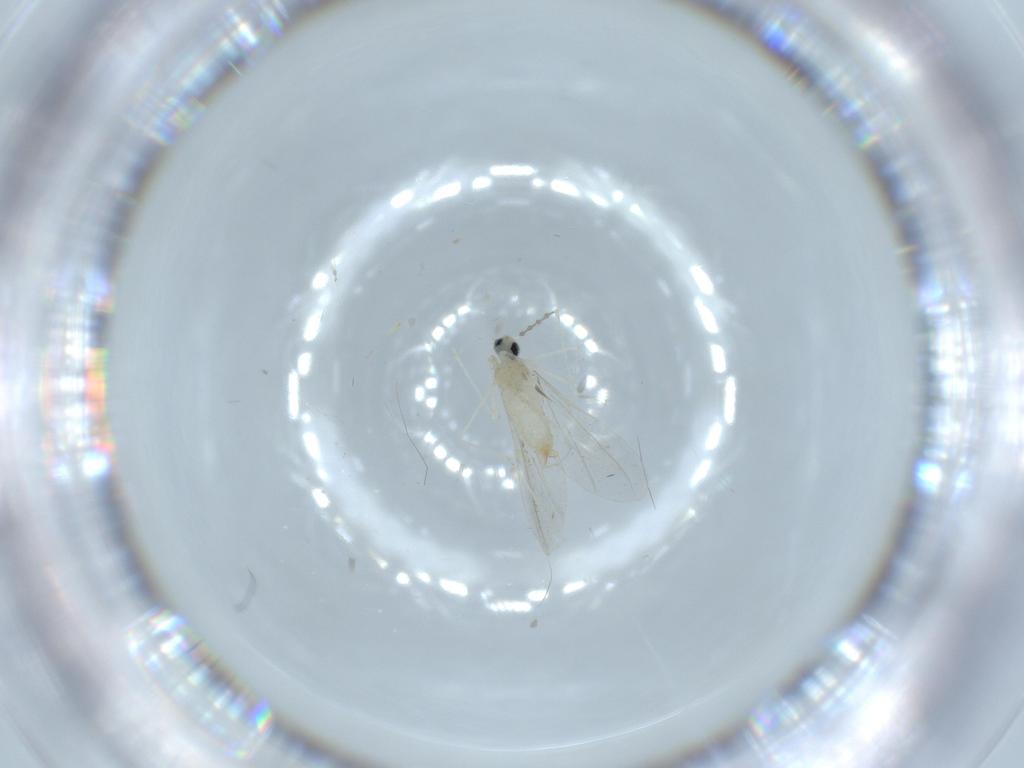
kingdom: Animalia
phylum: Arthropoda
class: Insecta
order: Diptera
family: Cecidomyiidae
